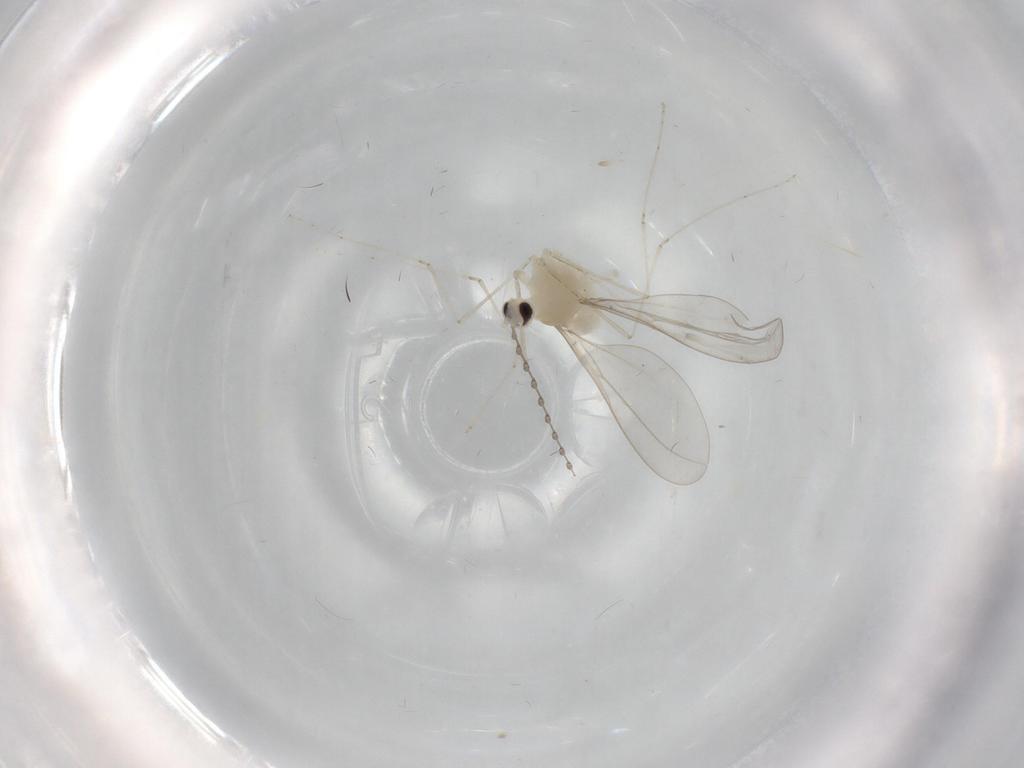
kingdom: Animalia
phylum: Arthropoda
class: Insecta
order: Diptera
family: Cecidomyiidae
